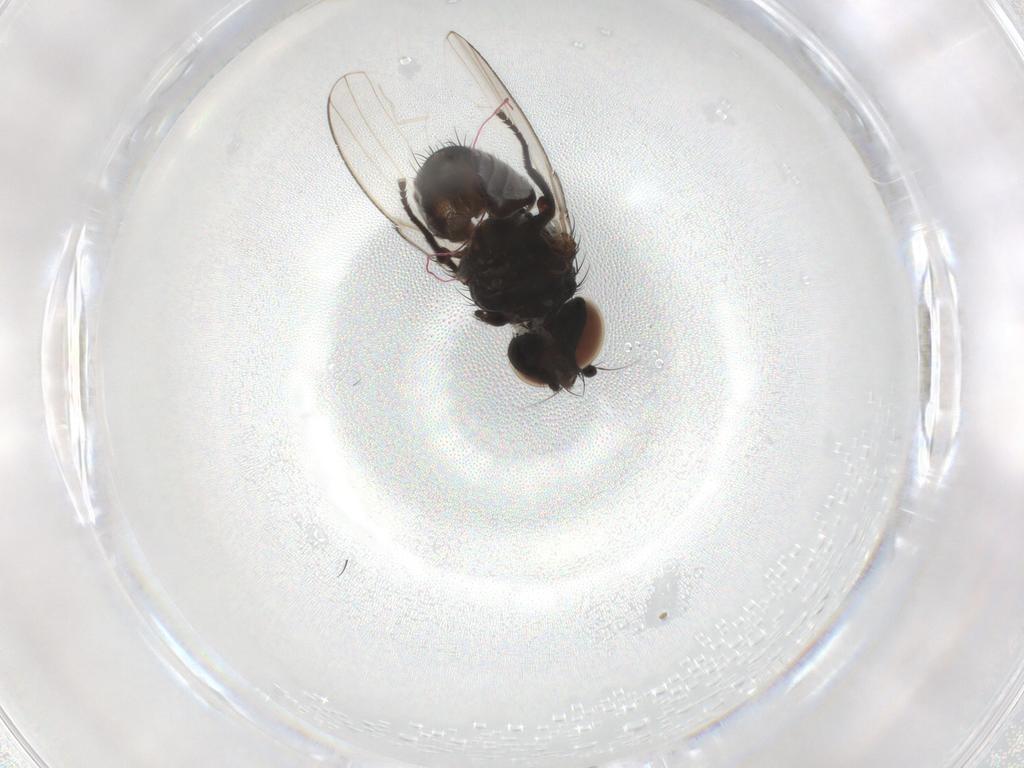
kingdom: Animalia
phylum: Arthropoda
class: Insecta
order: Diptera
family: Milichiidae
